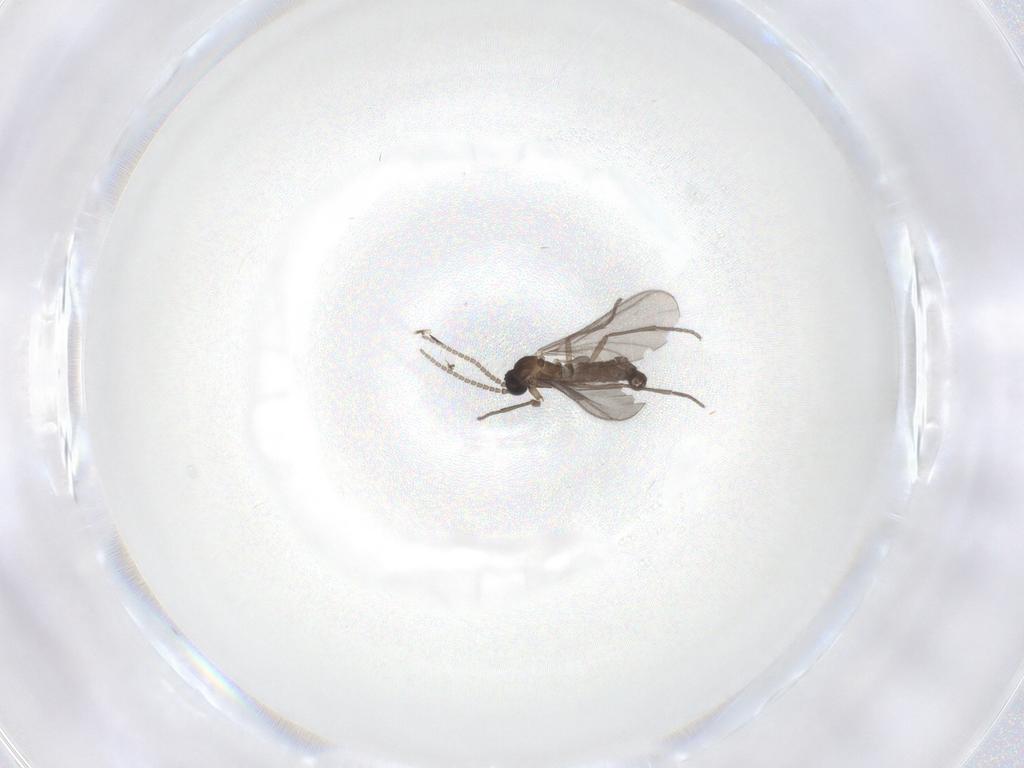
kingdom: Animalia
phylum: Arthropoda
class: Insecta
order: Diptera
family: Sciaridae
